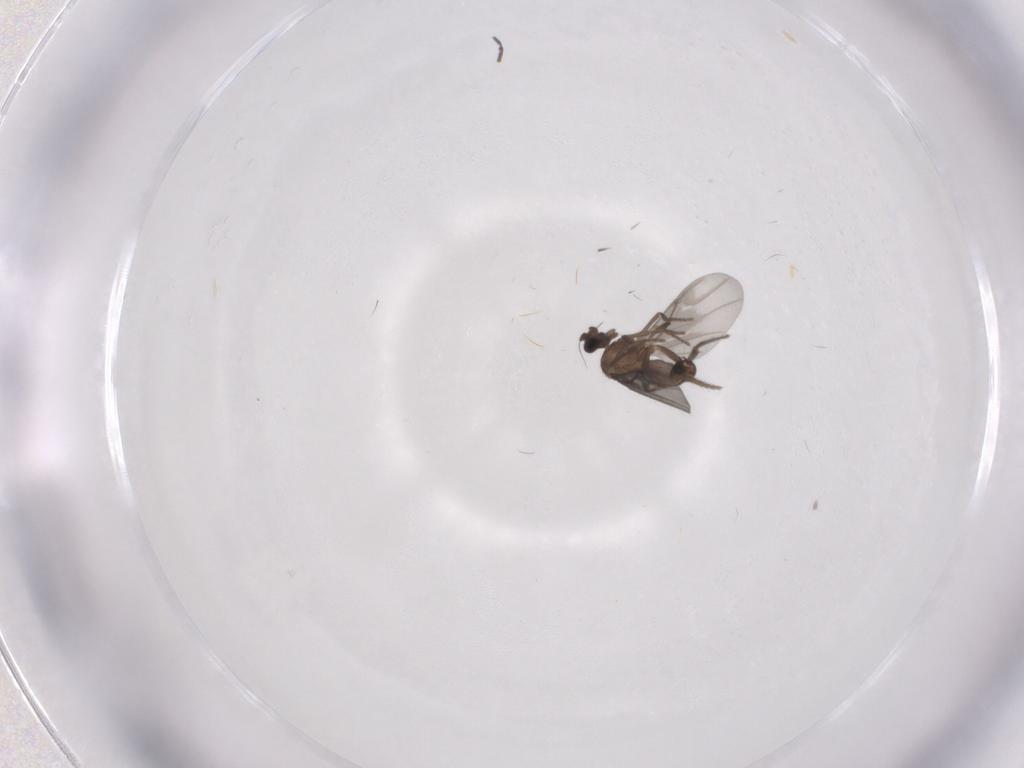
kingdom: Animalia
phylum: Arthropoda
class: Insecta
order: Diptera
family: Phoridae
